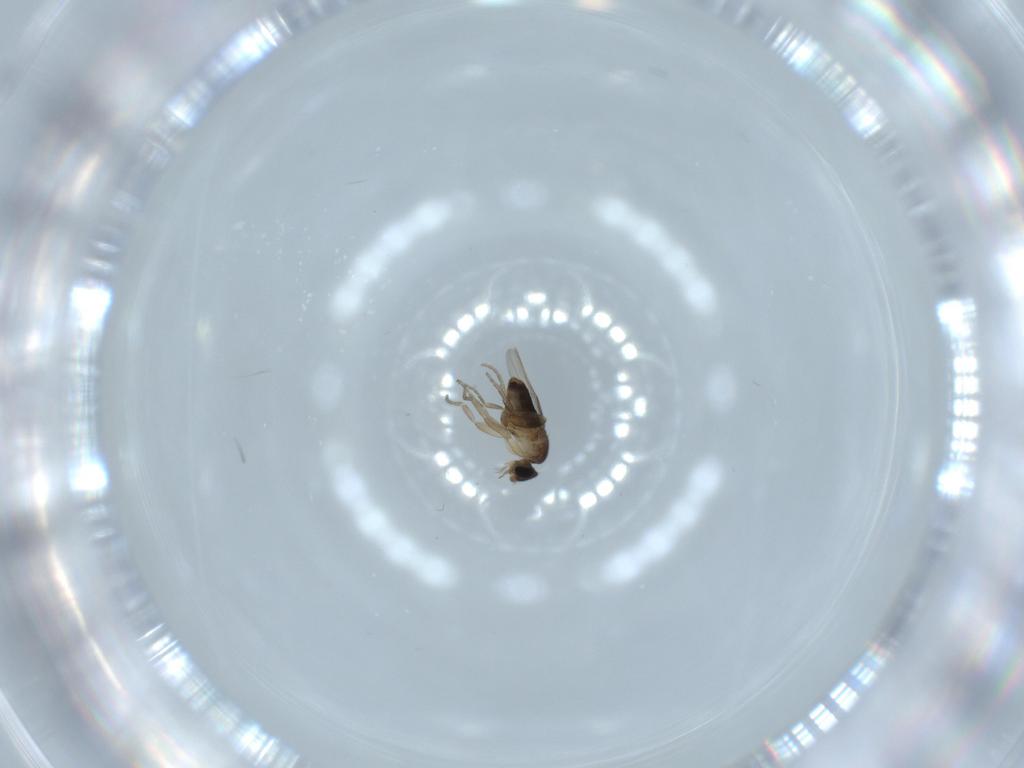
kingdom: Animalia
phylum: Arthropoda
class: Insecta
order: Diptera
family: Phoridae
